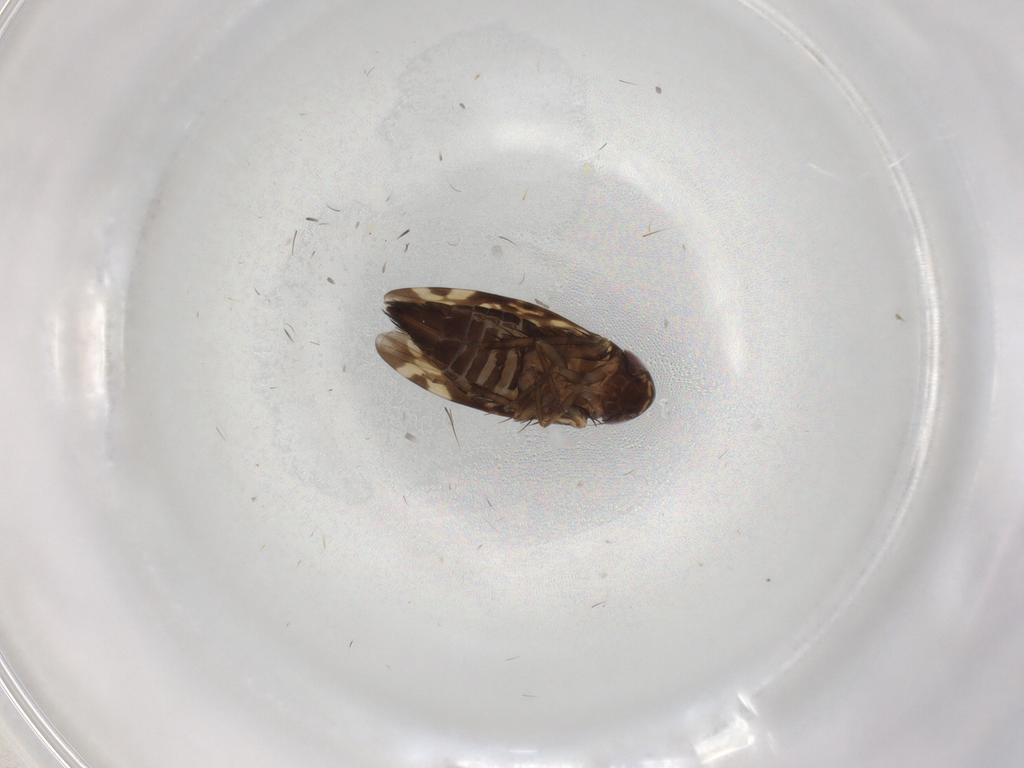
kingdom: Animalia
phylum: Arthropoda
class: Insecta
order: Hemiptera
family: Cicadellidae
